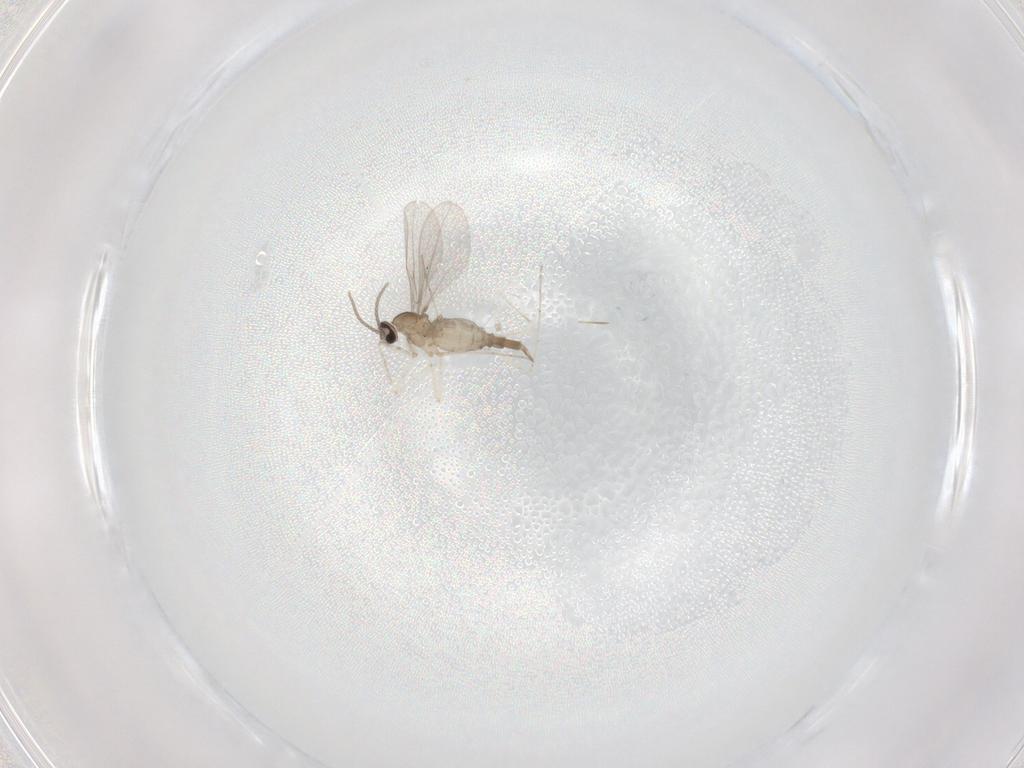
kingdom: Animalia
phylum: Arthropoda
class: Insecta
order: Diptera
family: Cecidomyiidae
